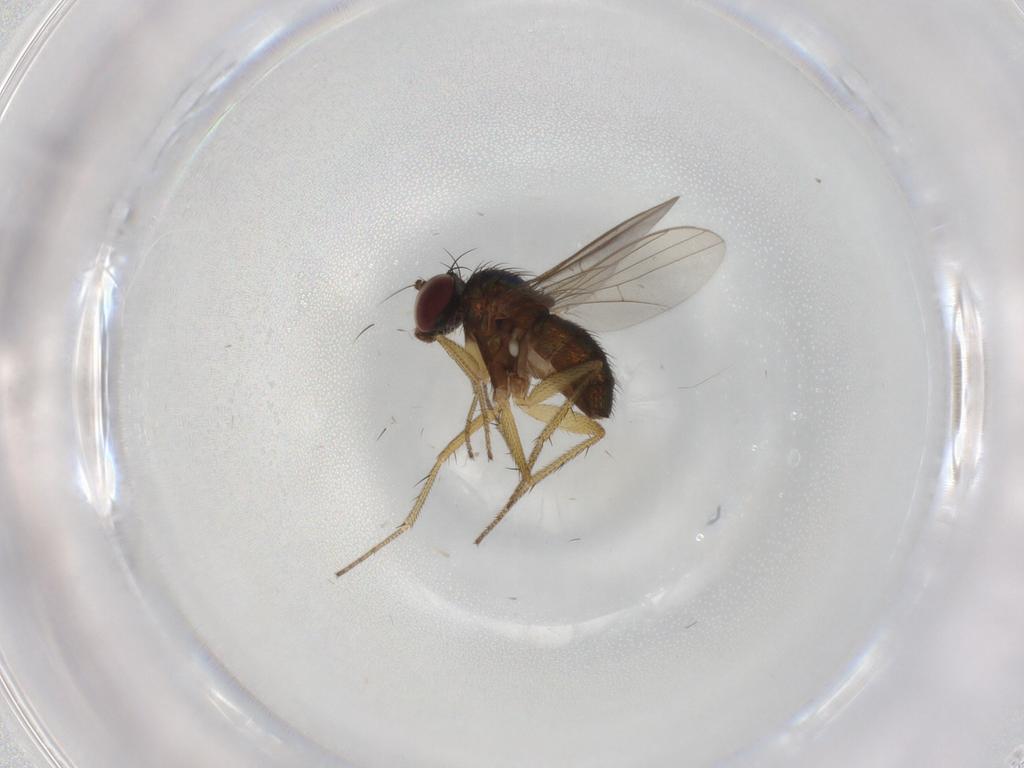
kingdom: Animalia
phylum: Arthropoda
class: Insecta
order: Diptera
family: Dolichopodidae
